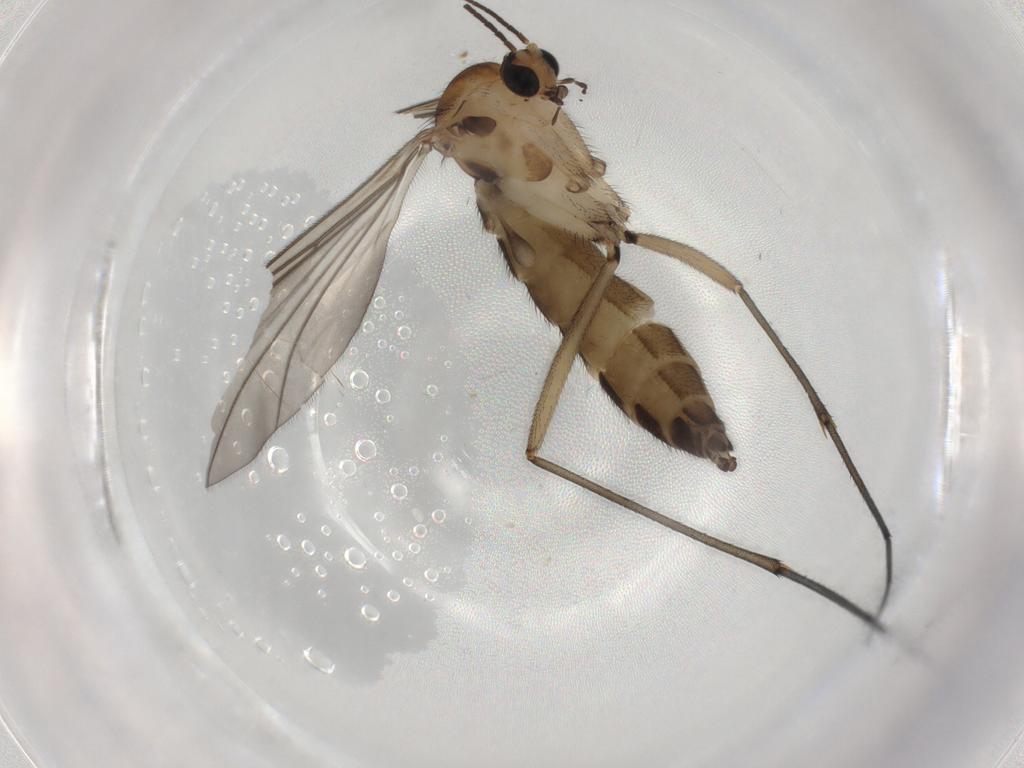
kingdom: Animalia
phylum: Arthropoda
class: Insecta
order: Diptera
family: Sciaridae
